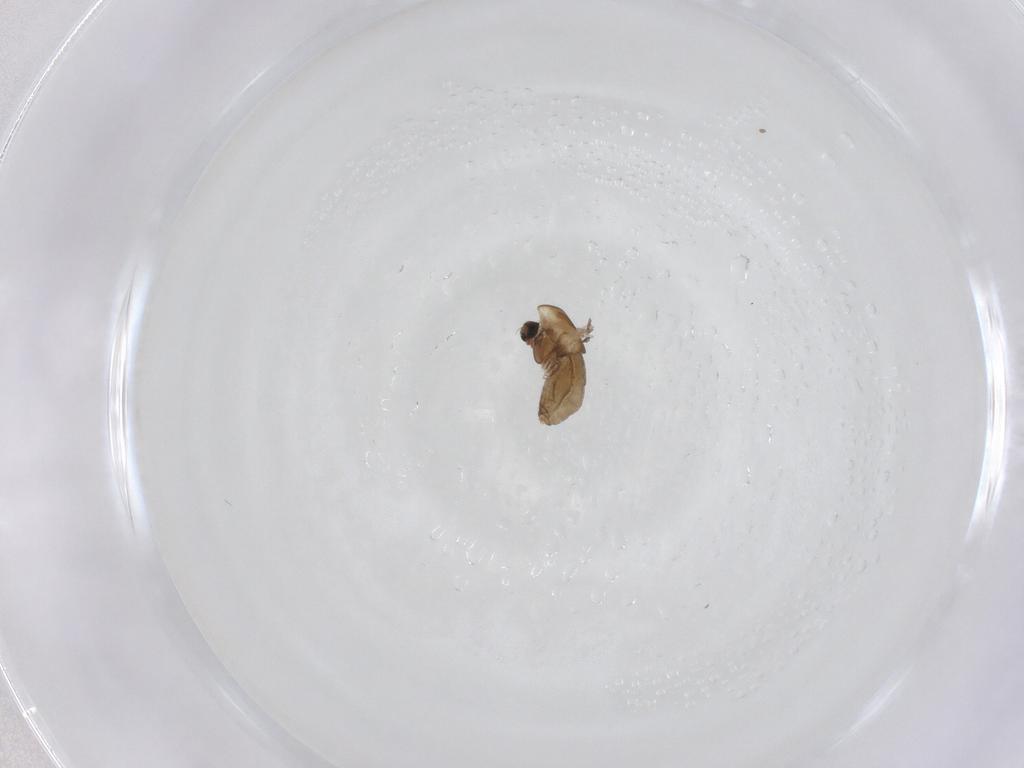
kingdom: Animalia
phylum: Arthropoda
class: Insecta
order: Diptera
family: Chironomidae
